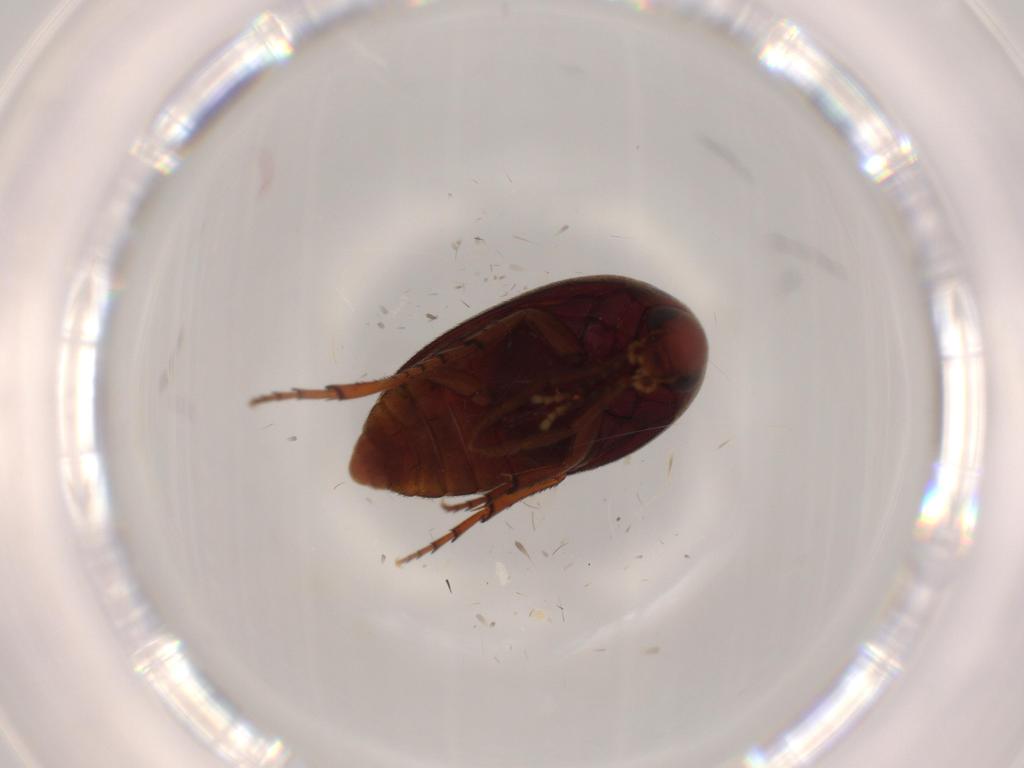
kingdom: Animalia
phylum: Arthropoda
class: Insecta
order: Coleoptera
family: Eucinetidae
